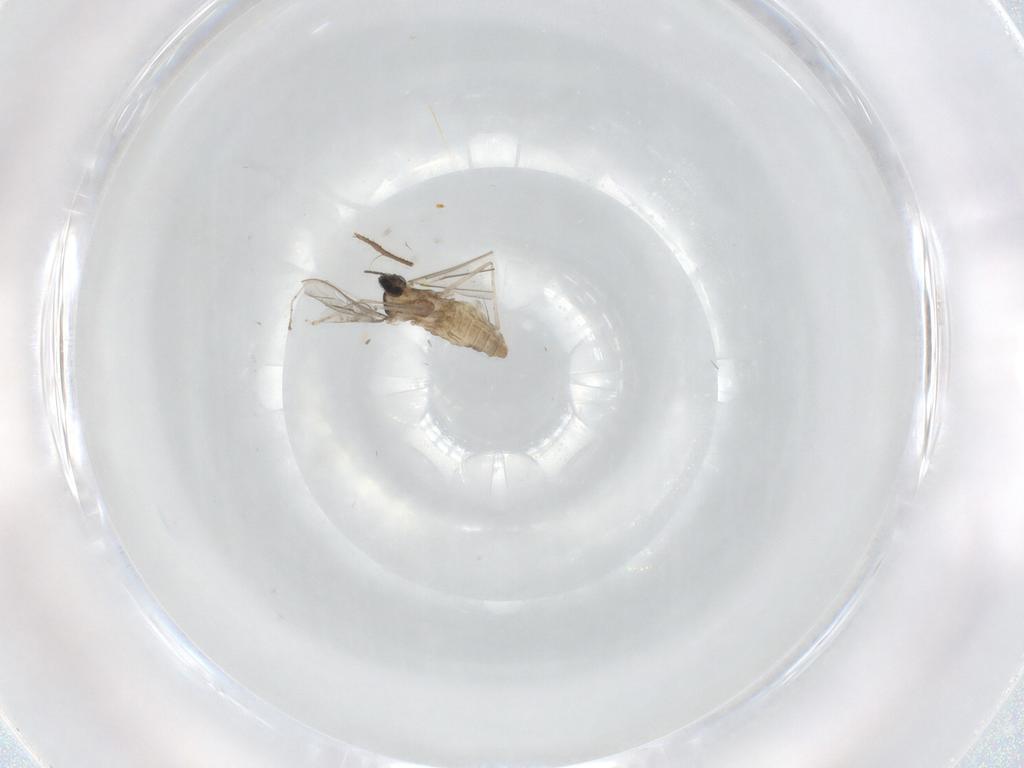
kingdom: Animalia
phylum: Arthropoda
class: Insecta
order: Diptera
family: Cecidomyiidae
